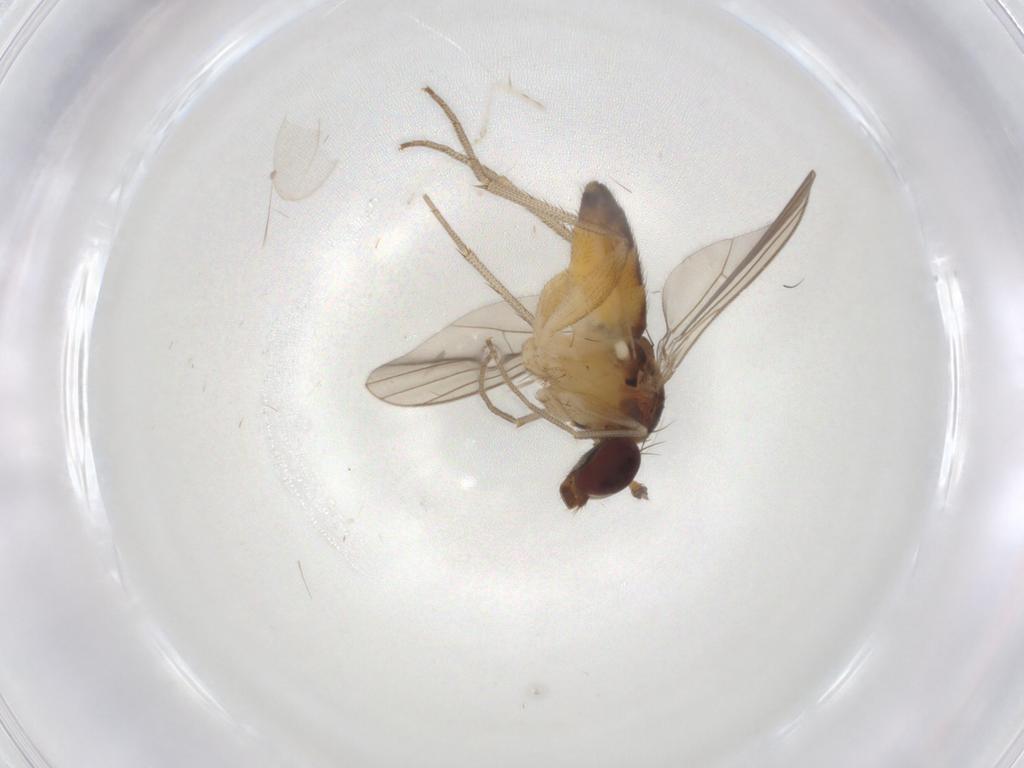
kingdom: Animalia
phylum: Arthropoda
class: Insecta
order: Diptera
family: Dolichopodidae
